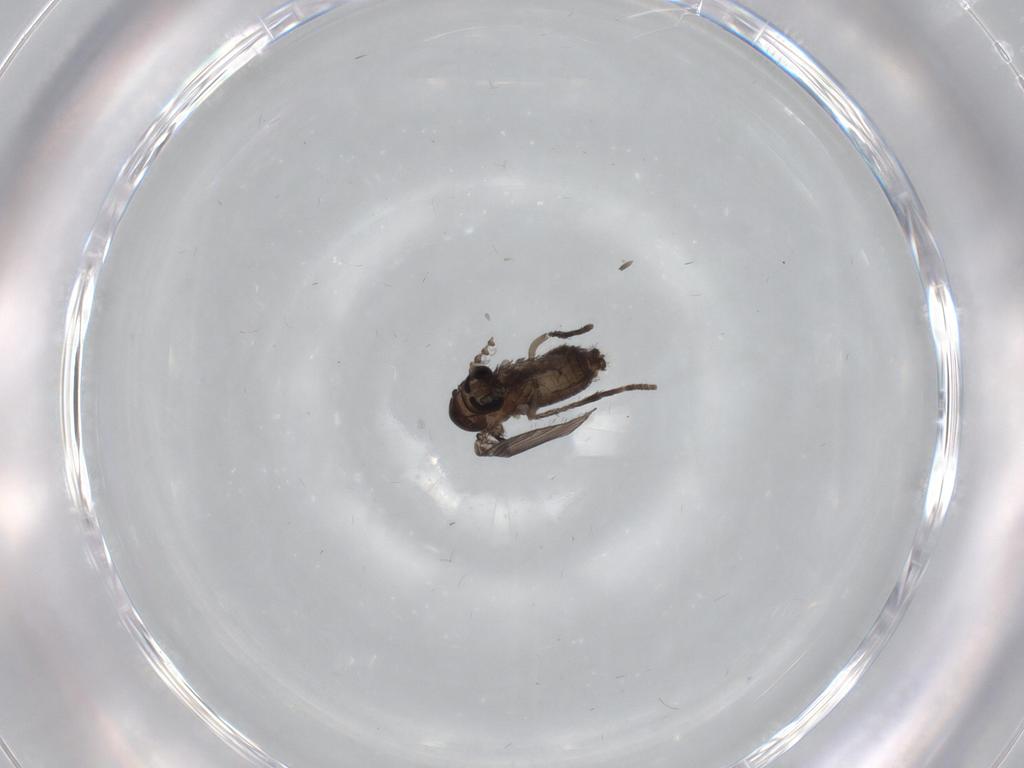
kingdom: Animalia
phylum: Arthropoda
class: Insecta
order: Diptera
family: Psychodidae
